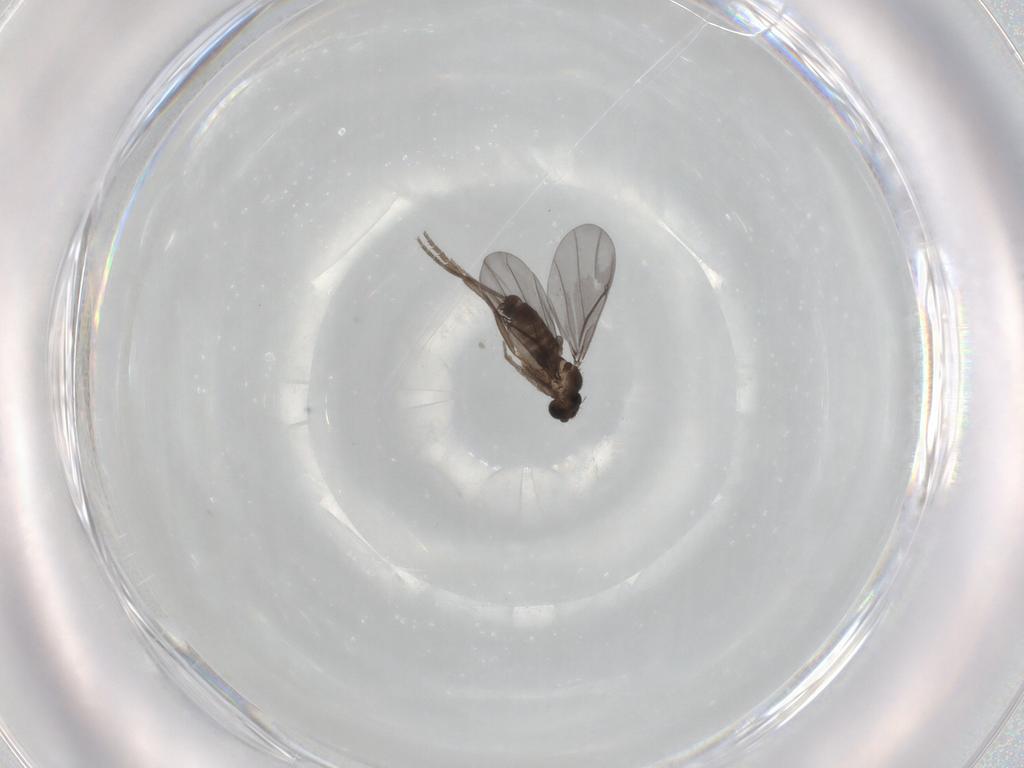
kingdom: Animalia
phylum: Arthropoda
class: Insecta
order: Diptera
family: Phoridae
